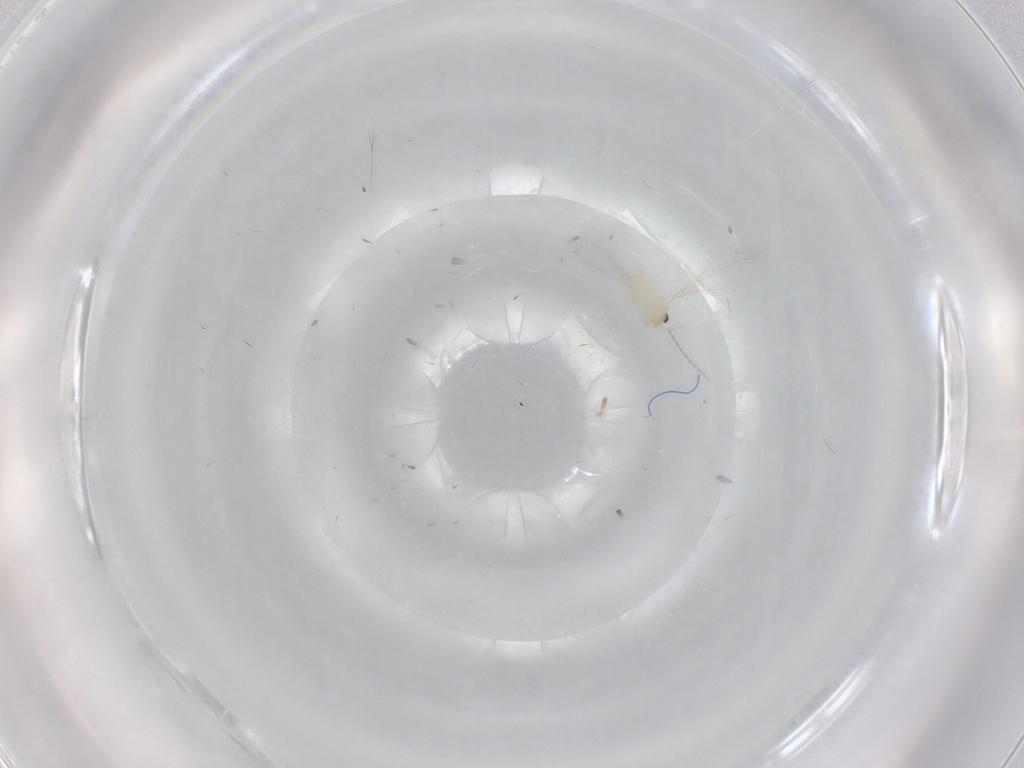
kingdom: Animalia
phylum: Arthropoda
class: Insecta
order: Diptera
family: Cecidomyiidae
